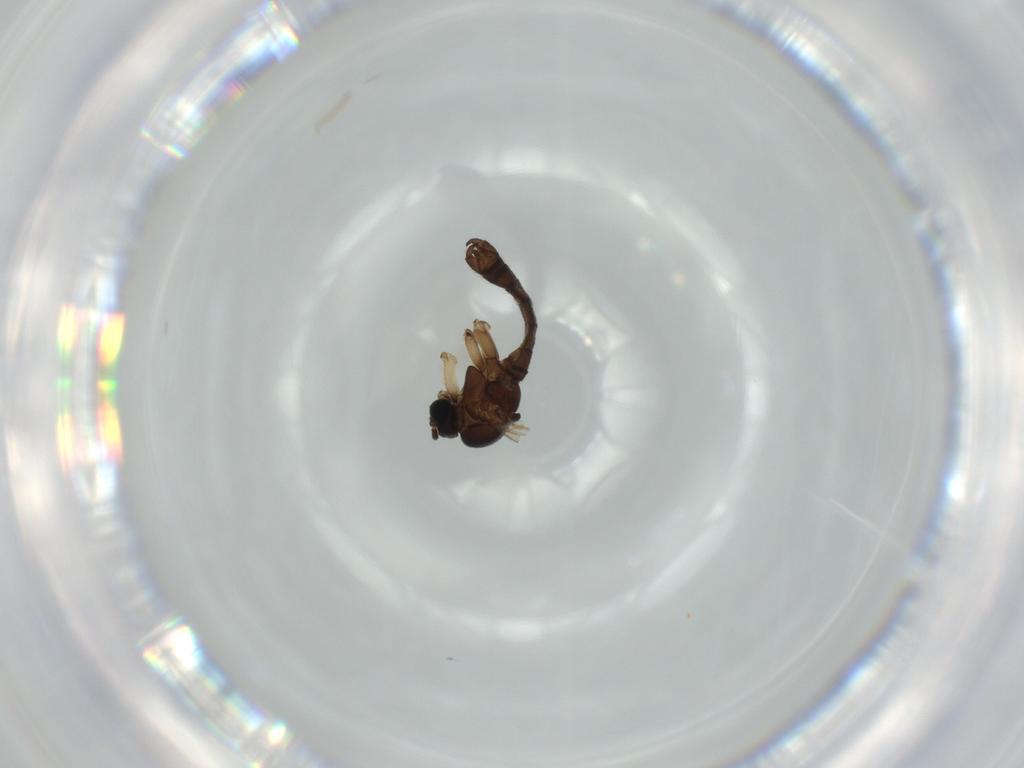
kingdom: Animalia
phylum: Arthropoda
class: Insecta
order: Diptera
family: Sciaridae
